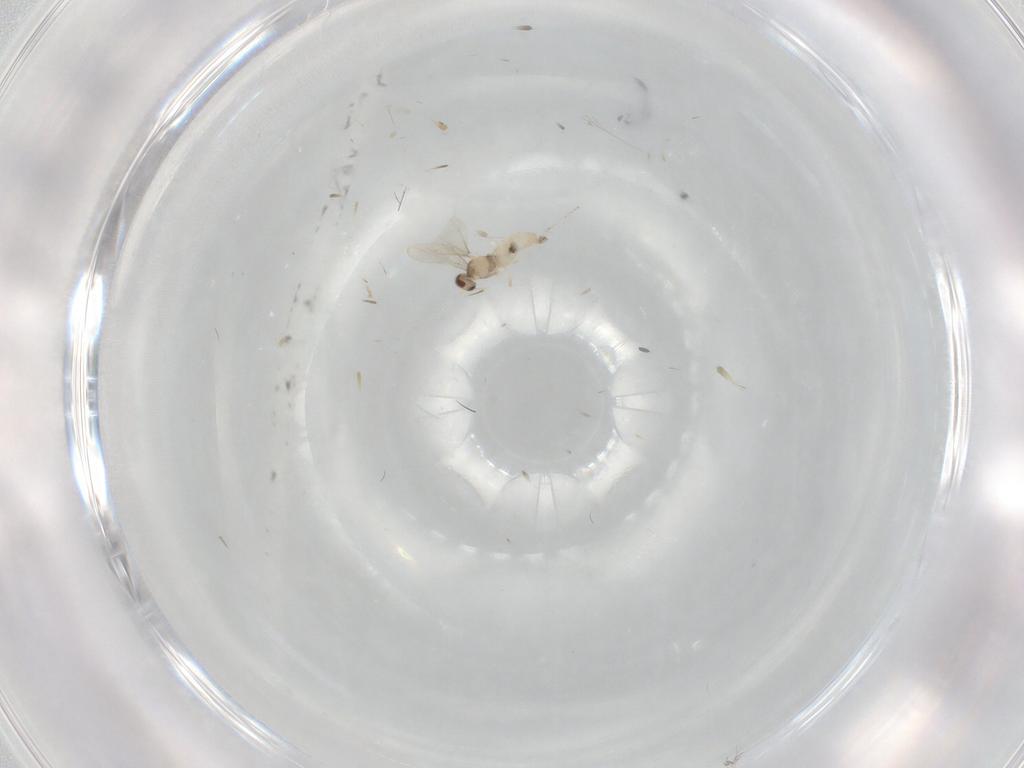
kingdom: Animalia
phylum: Arthropoda
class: Insecta
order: Diptera
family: Cecidomyiidae
